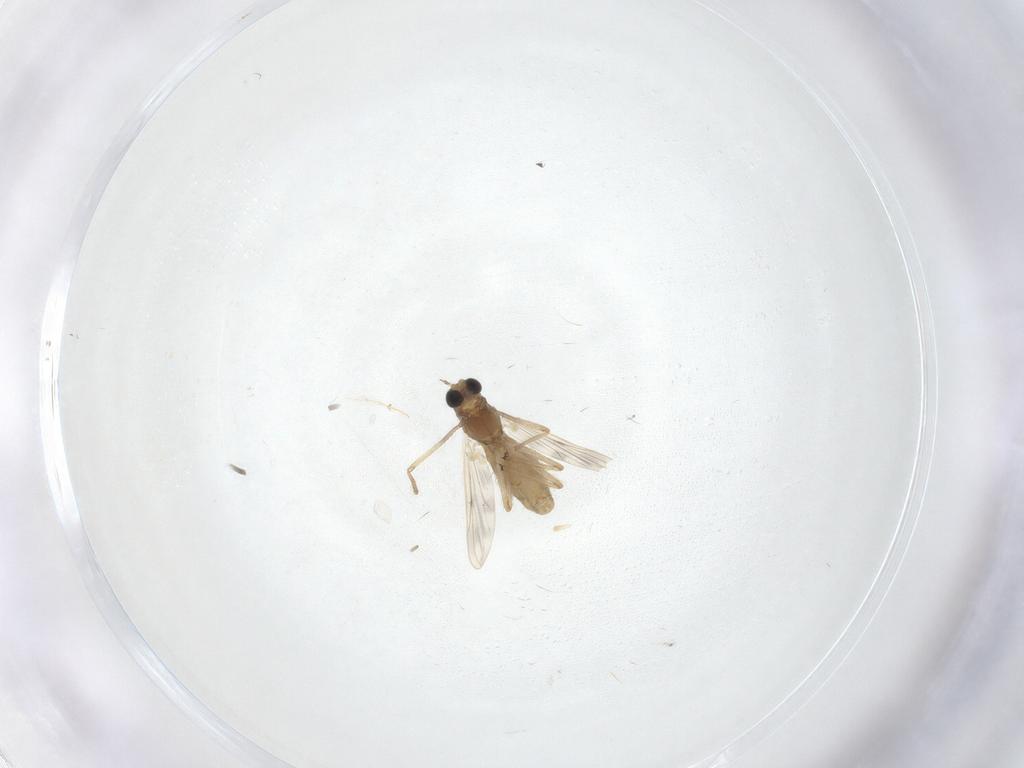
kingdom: Animalia
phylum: Arthropoda
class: Insecta
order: Diptera
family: Chironomidae
